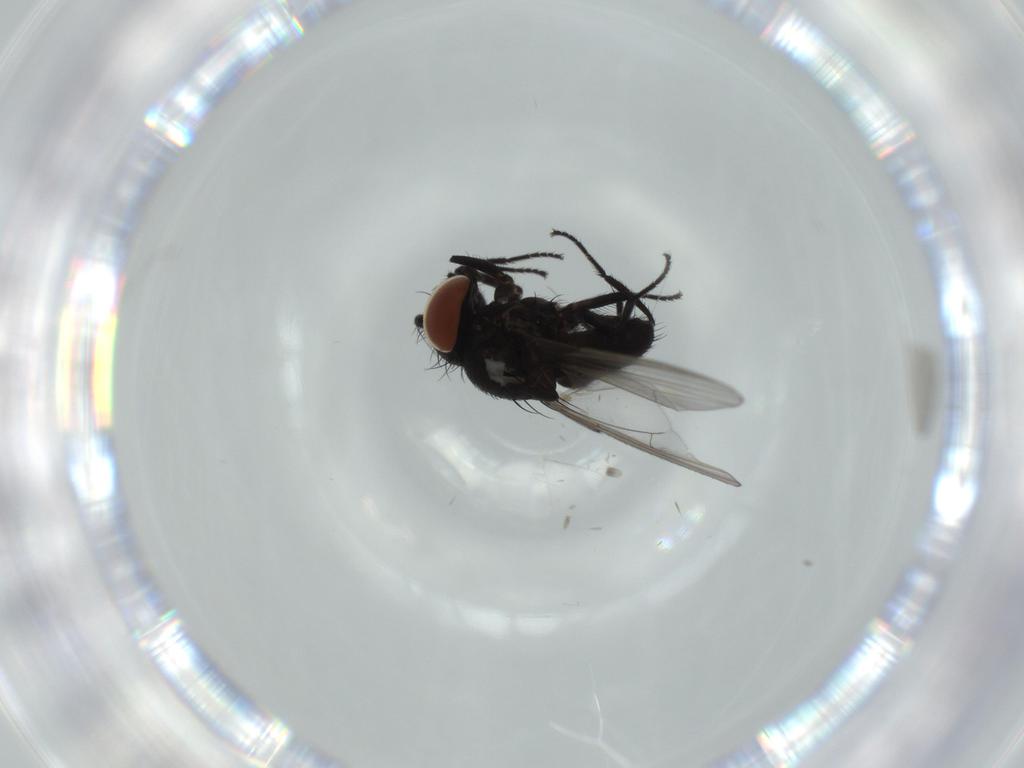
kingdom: Animalia
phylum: Arthropoda
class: Insecta
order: Diptera
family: Milichiidae
